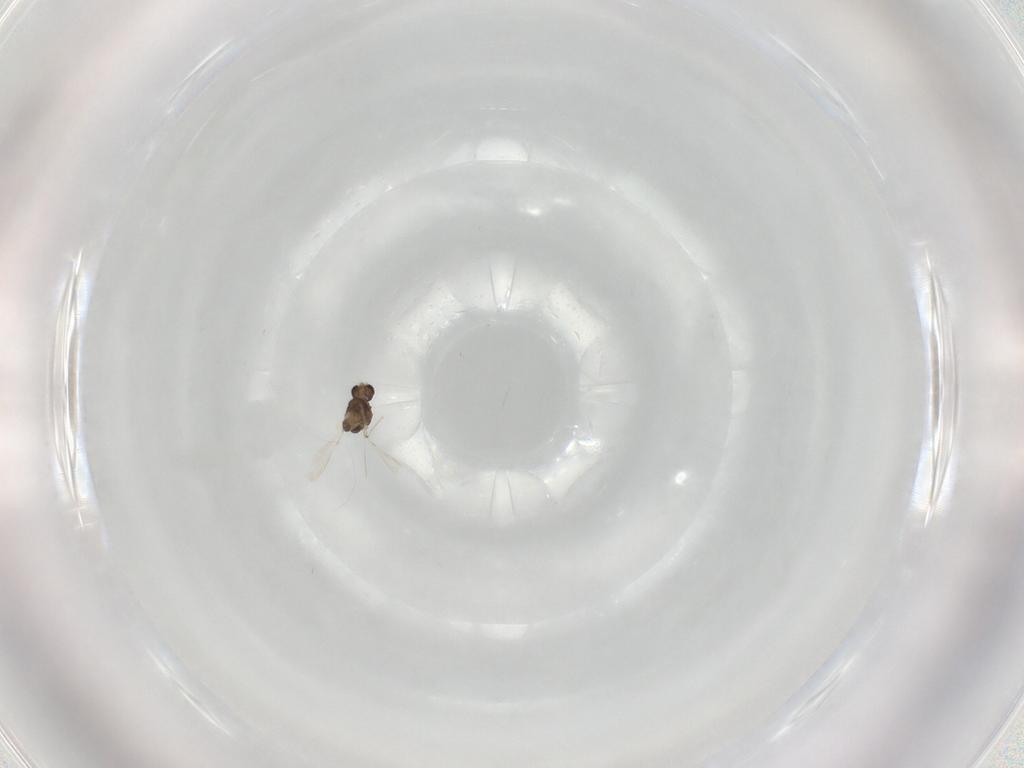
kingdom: Animalia
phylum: Arthropoda
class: Insecta
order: Diptera
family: Chironomidae
